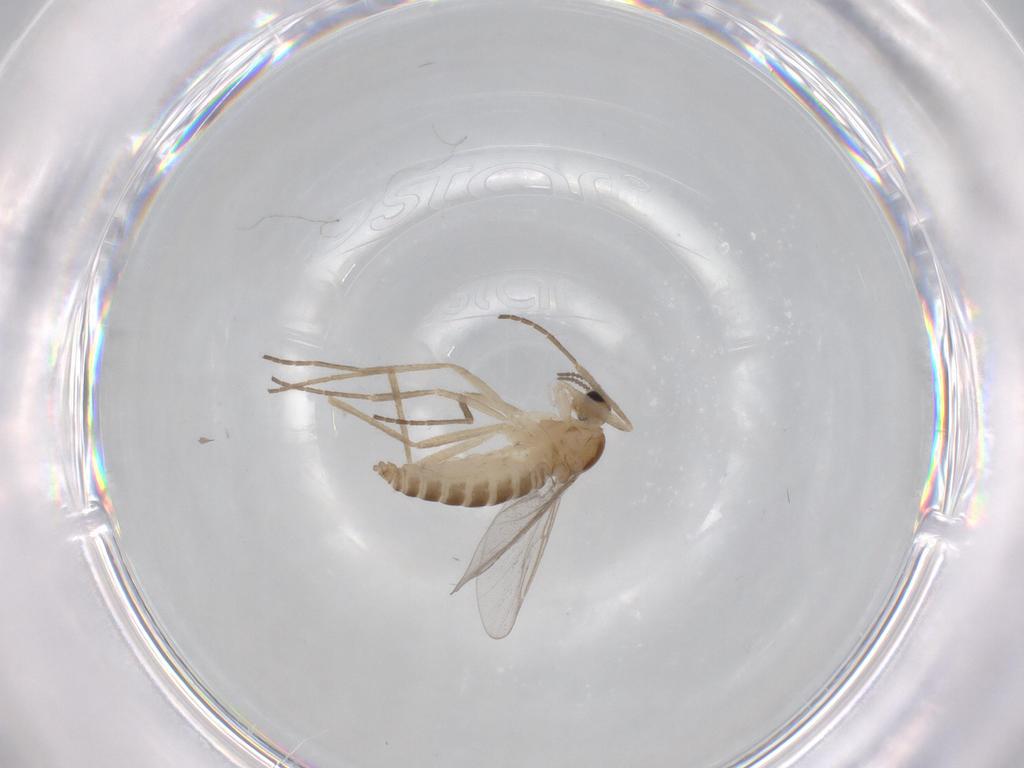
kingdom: Animalia
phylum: Arthropoda
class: Insecta
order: Diptera
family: Cecidomyiidae
